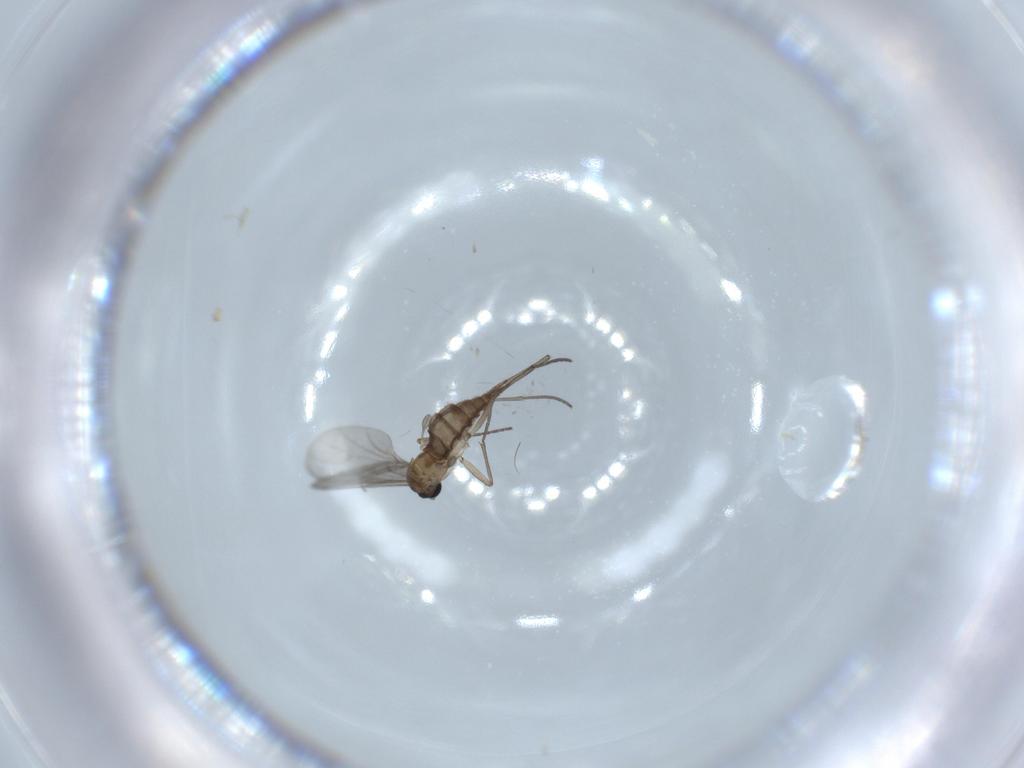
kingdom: Animalia
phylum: Arthropoda
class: Insecta
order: Diptera
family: Sciaridae
